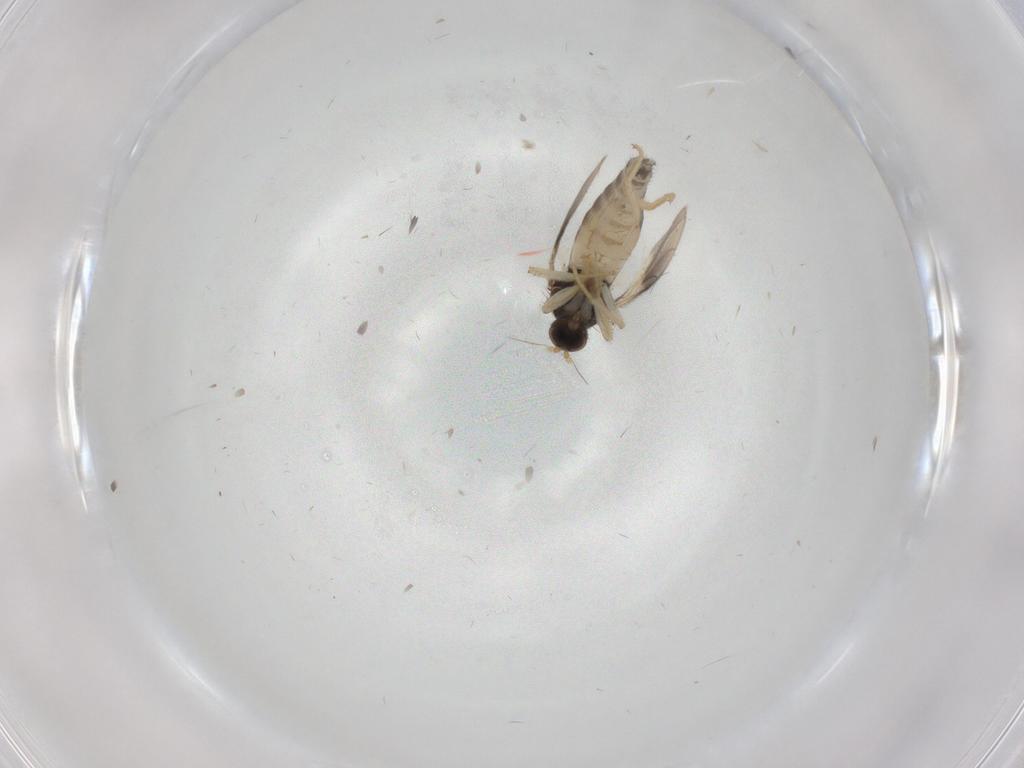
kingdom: Animalia
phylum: Arthropoda
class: Insecta
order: Diptera
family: Hybotidae
